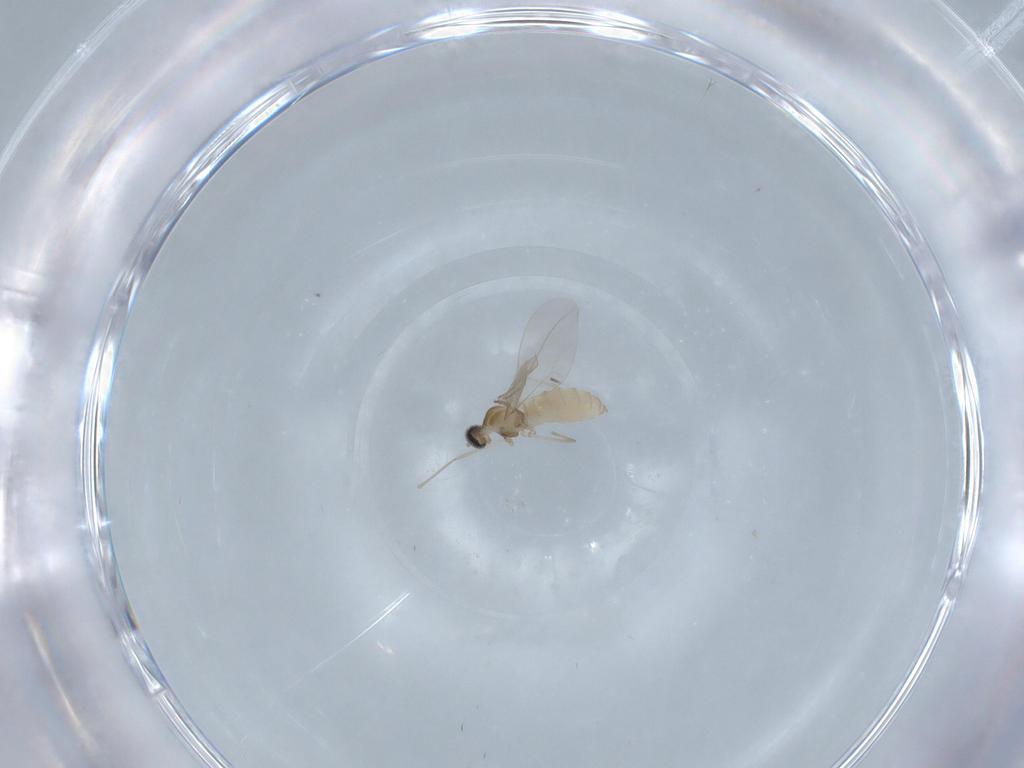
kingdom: Animalia
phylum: Arthropoda
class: Insecta
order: Diptera
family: Cecidomyiidae
